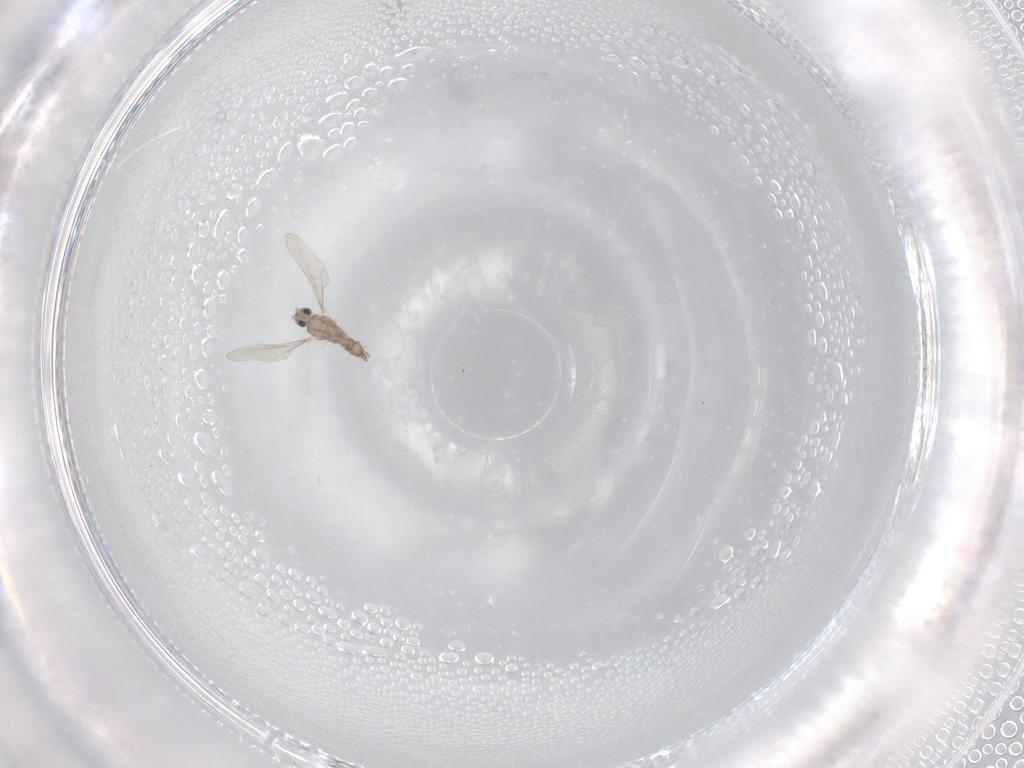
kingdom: Animalia
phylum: Arthropoda
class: Insecta
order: Diptera
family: Cecidomyiidae
